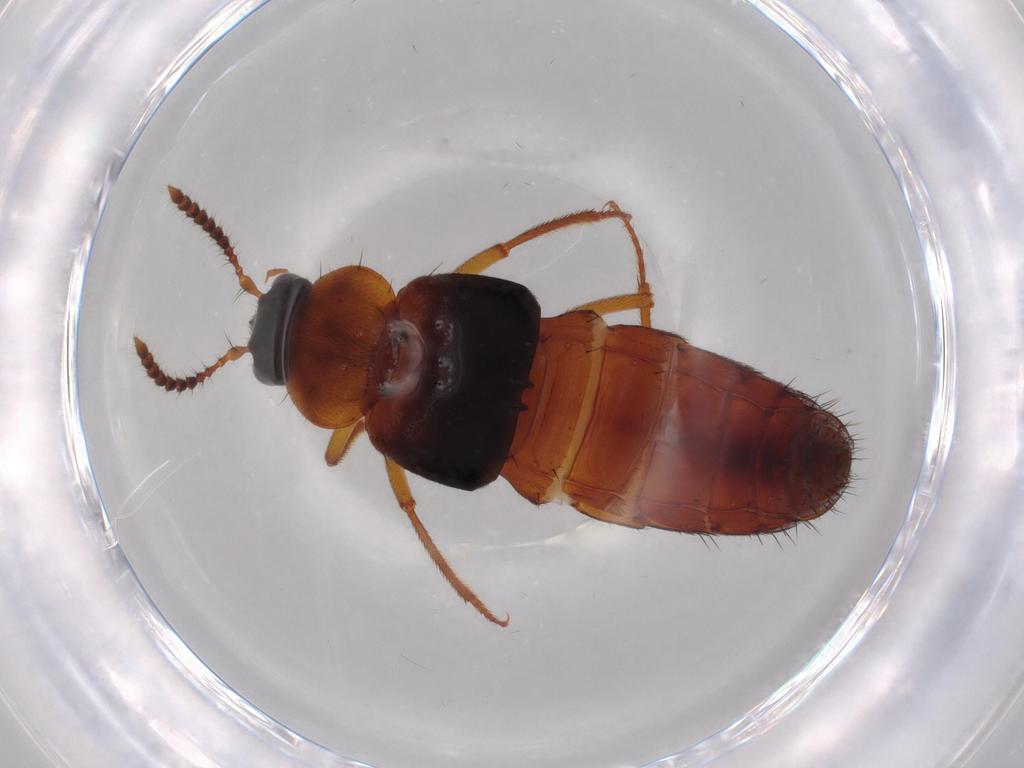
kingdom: Animalia
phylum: Arthropoda
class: Insecta
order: Coleoptera
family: Staphylinidae
